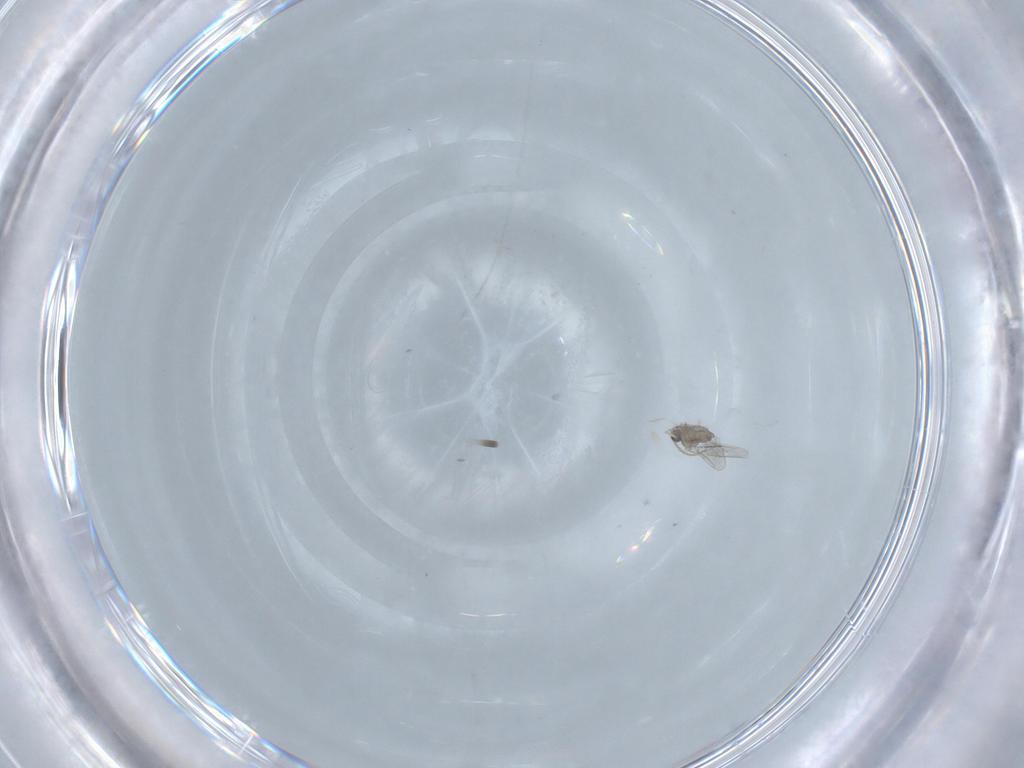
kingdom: Animalia
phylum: Arthropoda
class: Insecta
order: Diptera
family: Cecidomyiidae
